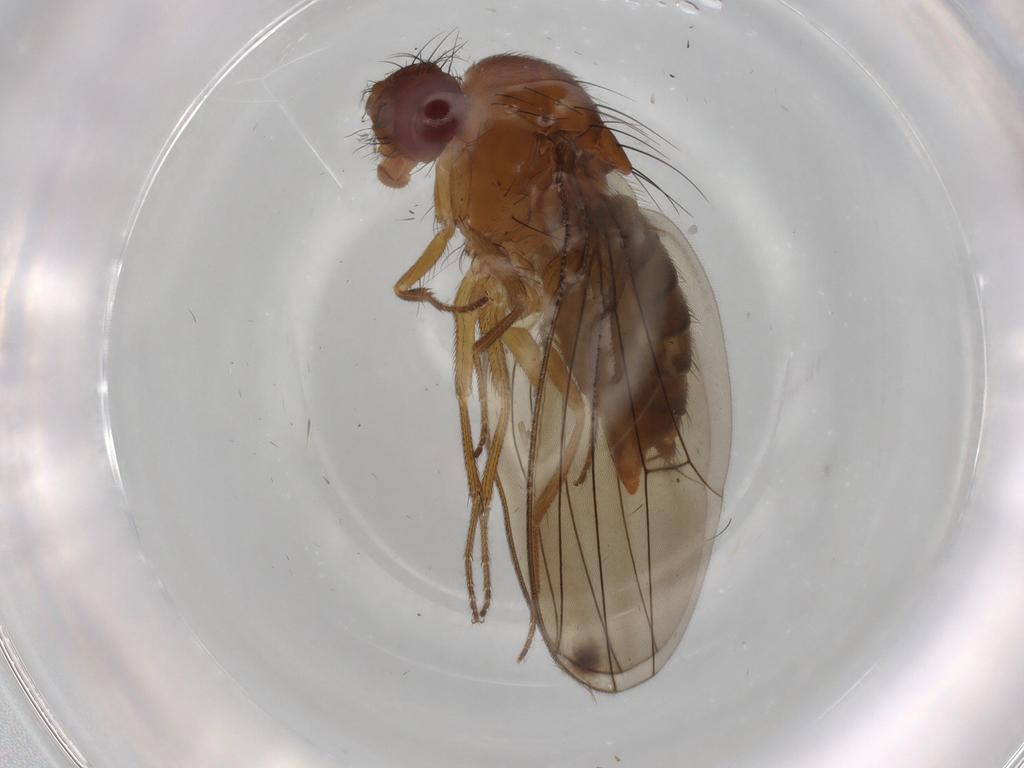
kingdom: Animalia
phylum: Arthropoda
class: Insecta
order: Diptera
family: Drosophilidae
